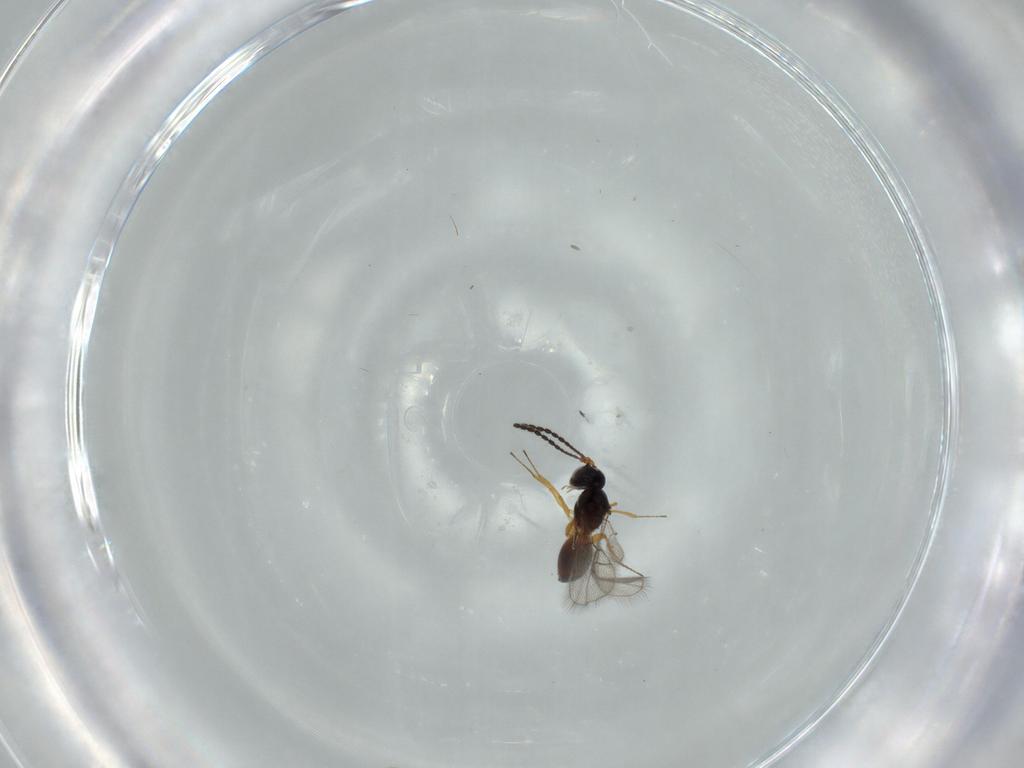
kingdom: Animalia
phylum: Arthropoda
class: Insecta
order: Hymenoptera
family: Figitidae
